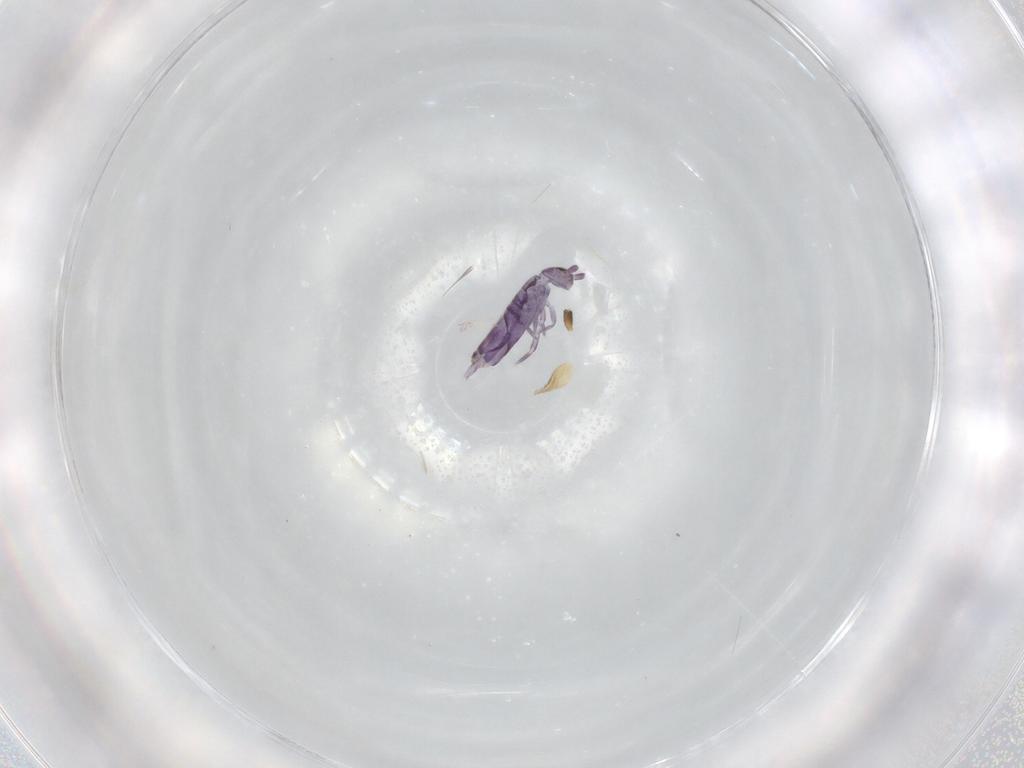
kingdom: Animalia
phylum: Arthropoda
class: Collembola
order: Entomobryomorpha
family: Entomobryidae
